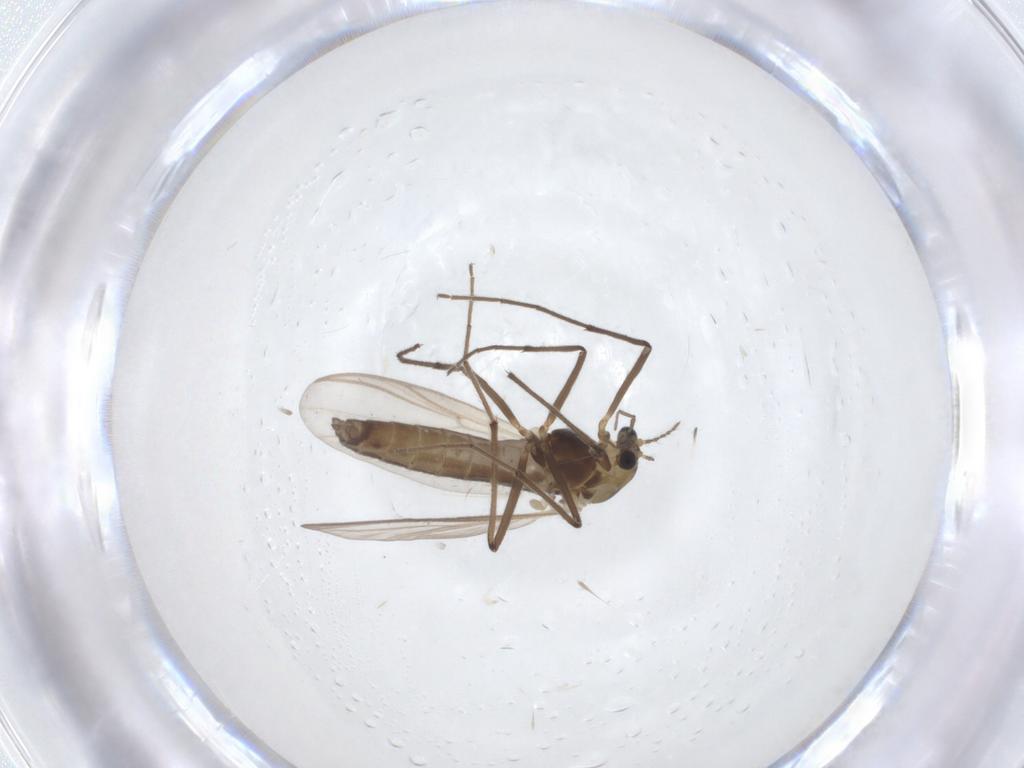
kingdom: Animalia
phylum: Arthropoda
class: Insecta
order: Diptera
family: Chironomidae
